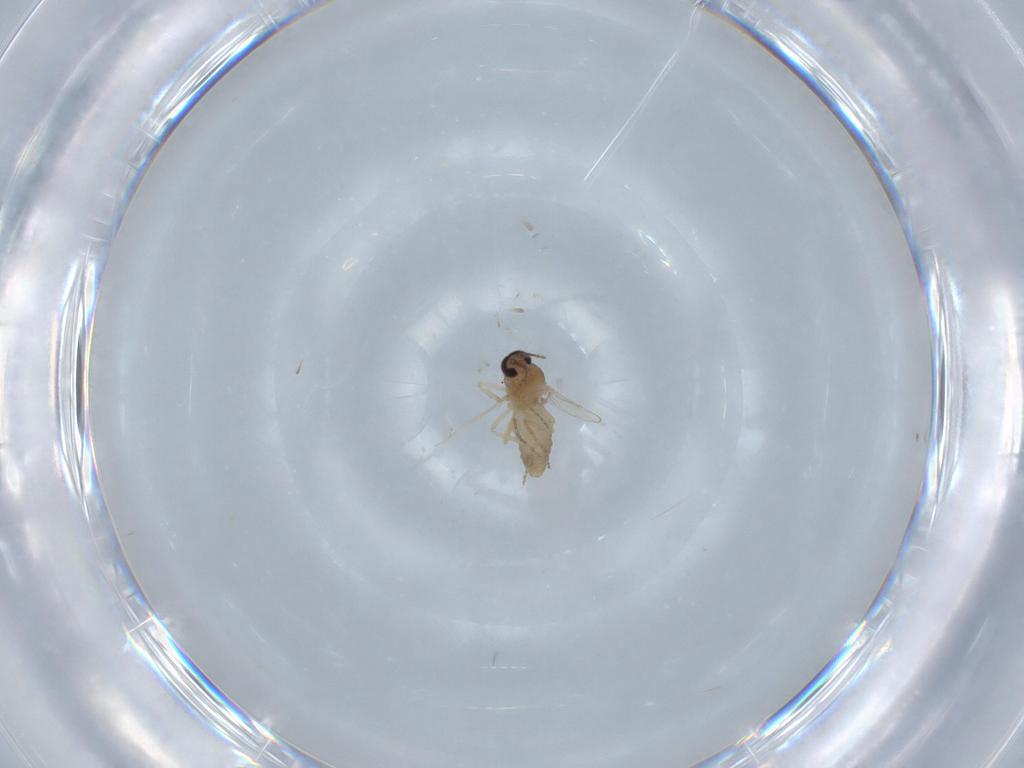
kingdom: Animalia
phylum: Arthropoda
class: Insecta
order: Diptera
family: Ceratopogonidae
